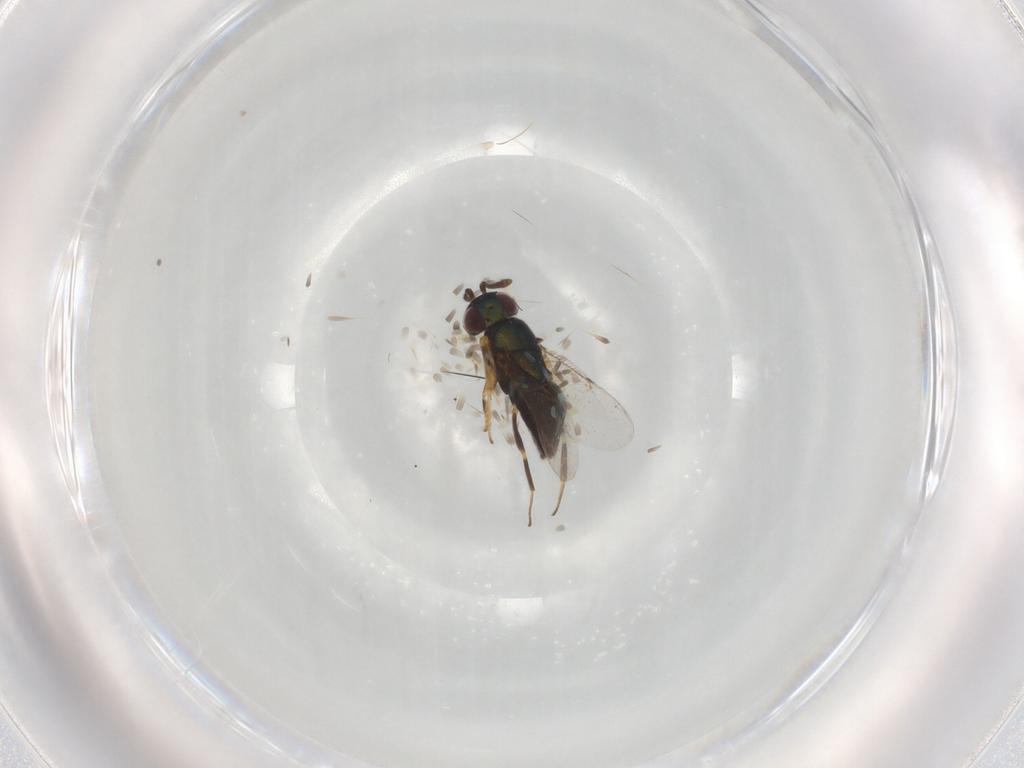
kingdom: Animalia
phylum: Arthropoda
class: Insecta
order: Hymenoptera
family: Encyrtidae
